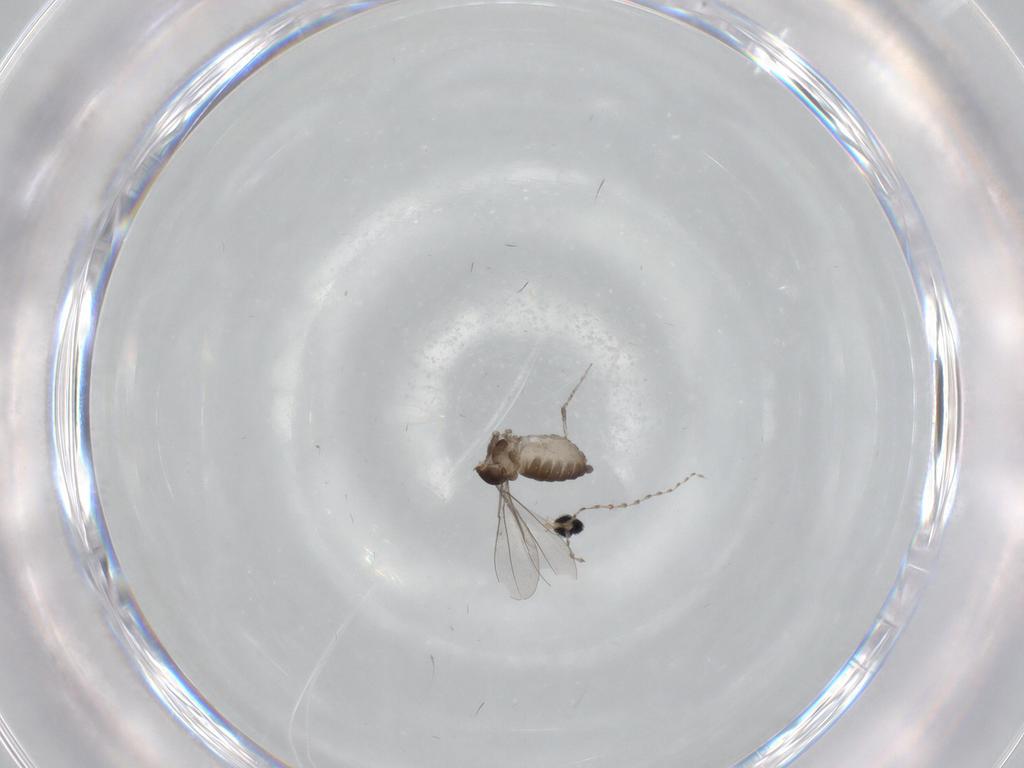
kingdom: Animalia
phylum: Arthropoda
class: Insecta
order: Diptera
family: Cecidomyiidae
